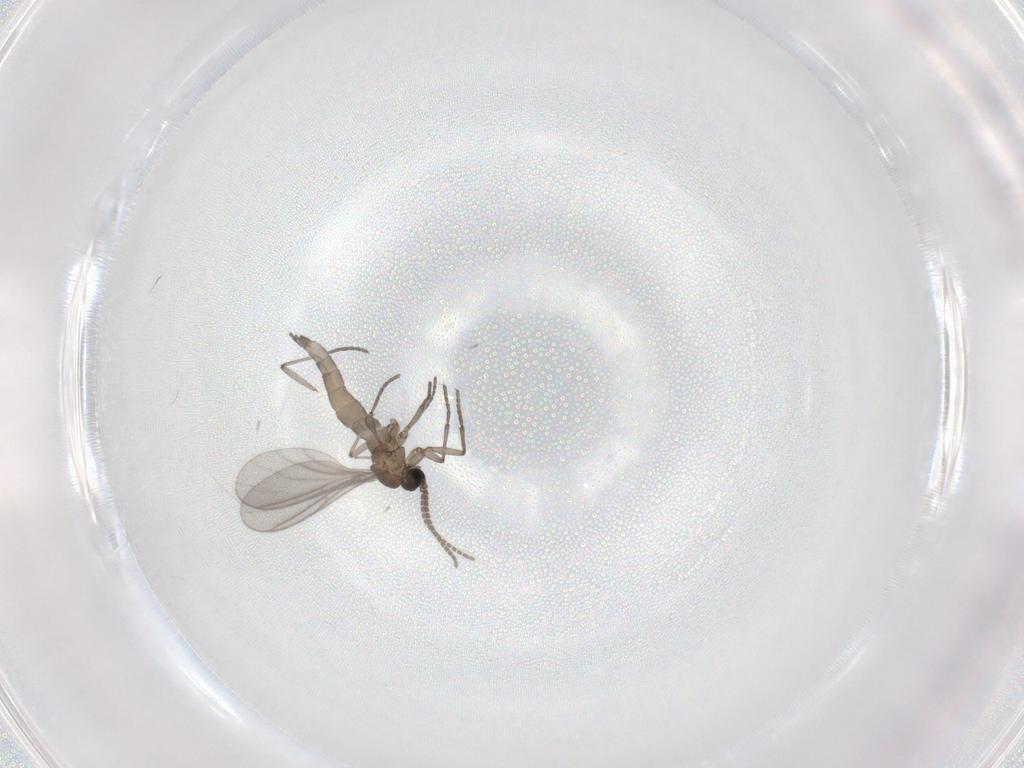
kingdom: Animalia
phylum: Arthropoda
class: Insecta
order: Diptera
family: Sciaridae
